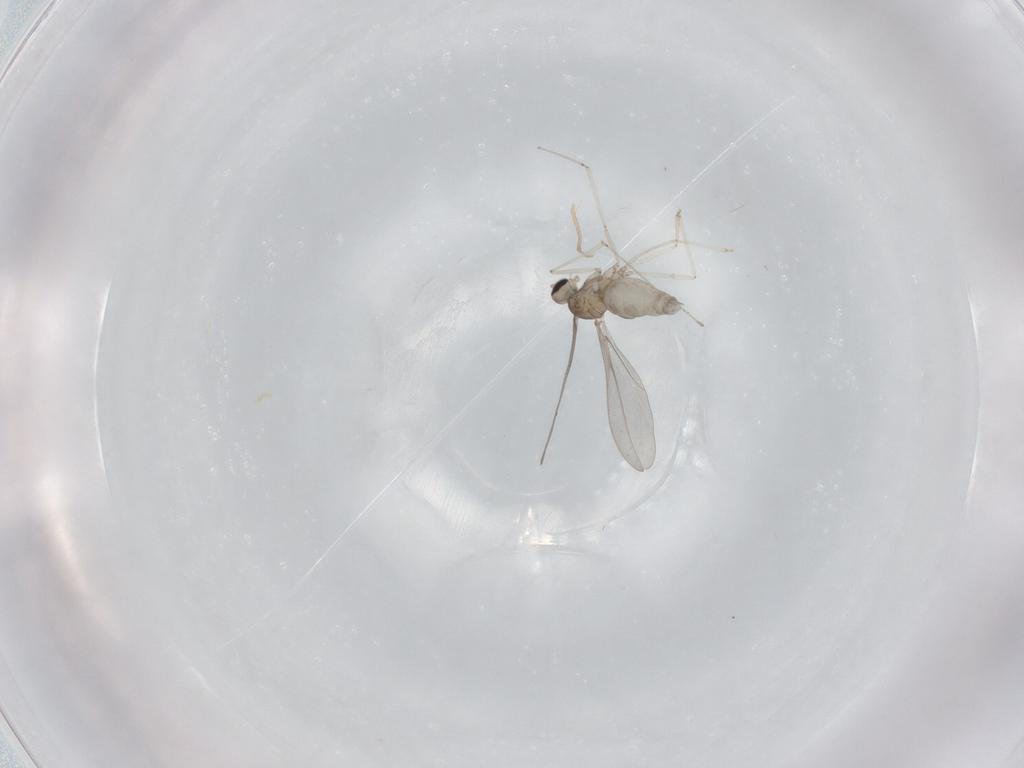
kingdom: Animalia
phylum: Arthropoda
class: Insecta
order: Diptera
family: Cecidomyiidae
